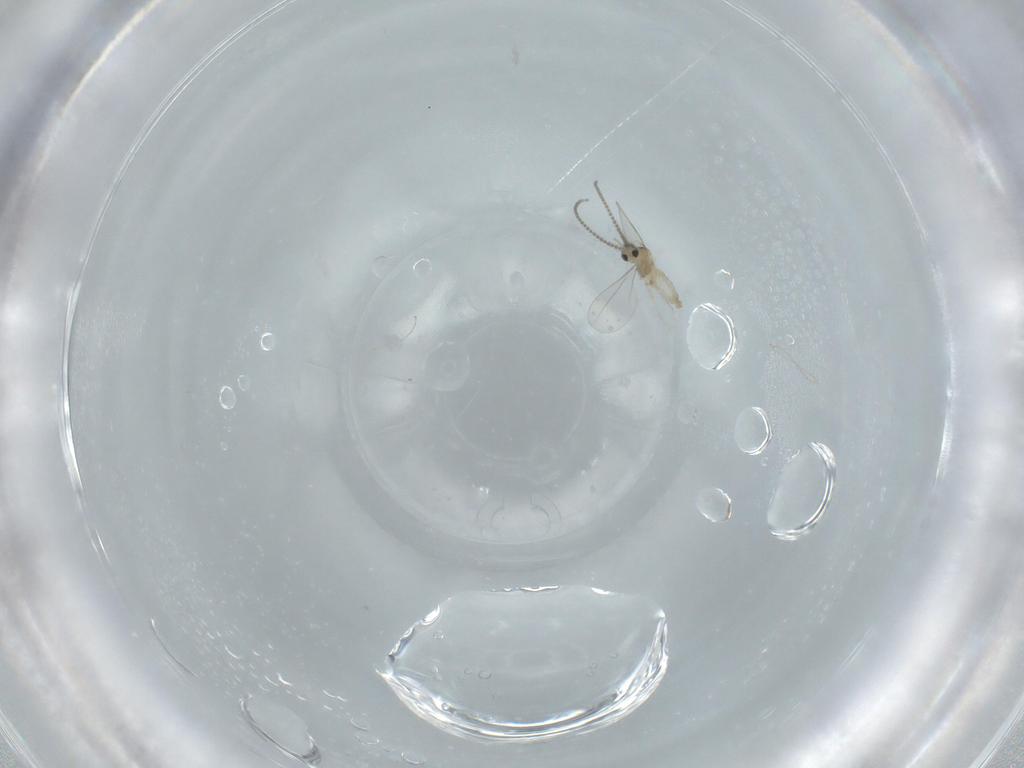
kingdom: Animalia
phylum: Arthropoda
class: Insecta
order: Diptera
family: Cecidomyiidae
